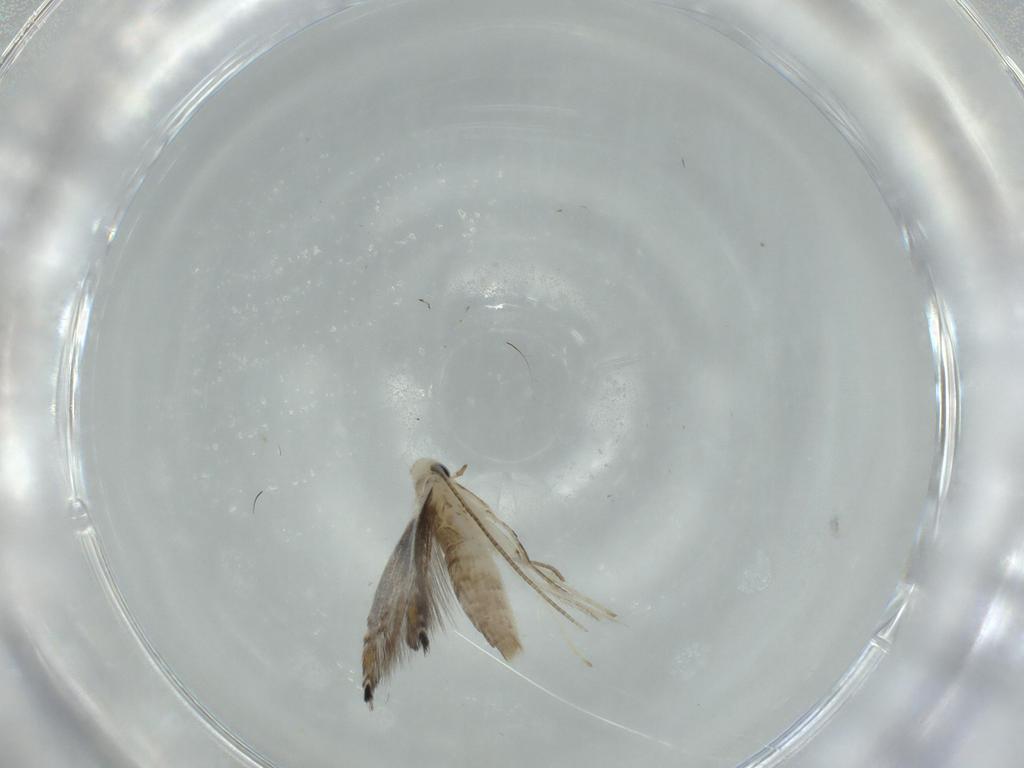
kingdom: Animalia
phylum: Arthropoda
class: Insecta
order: Lepidoptera
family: Gracillariidae
